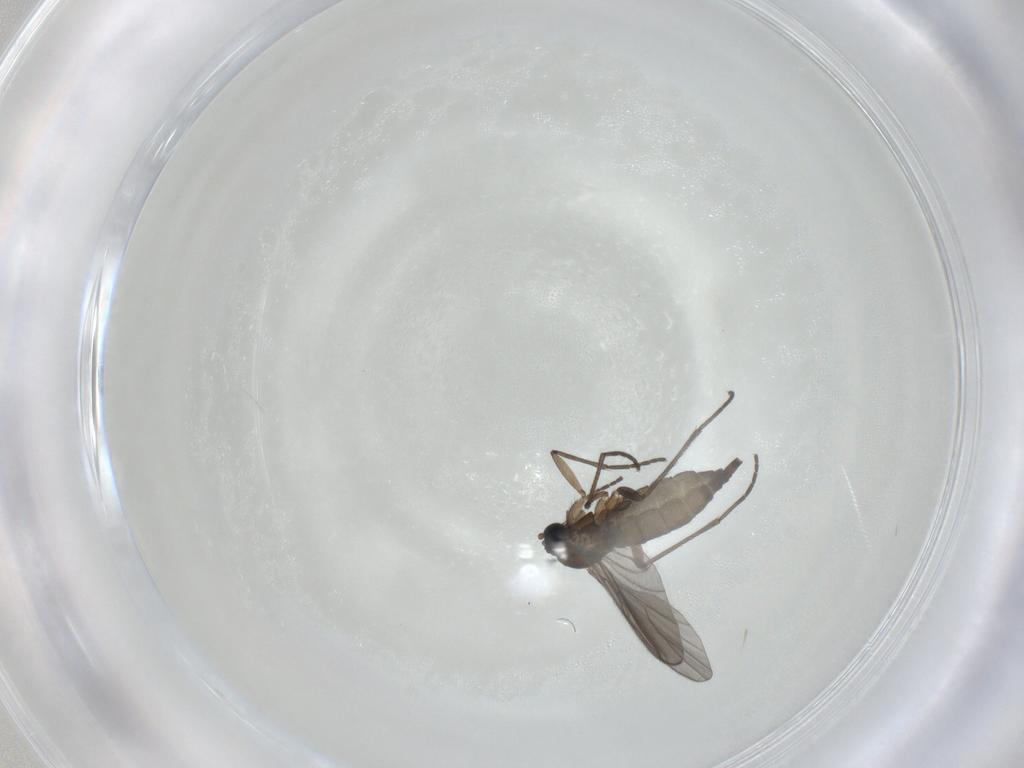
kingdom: Animalia
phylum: Arthropoda
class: Insecta
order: Diptera
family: Sciaridae
